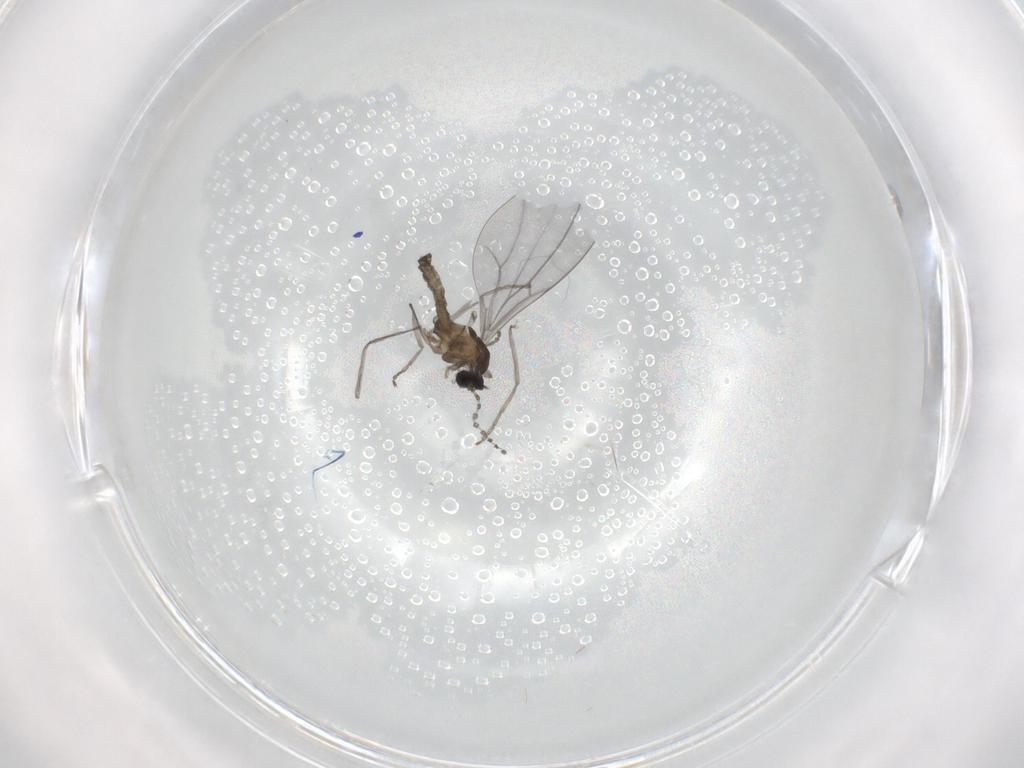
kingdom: Animalia
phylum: Arthropoda
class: Insecta
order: Diptera
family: Cecidomyiidae
